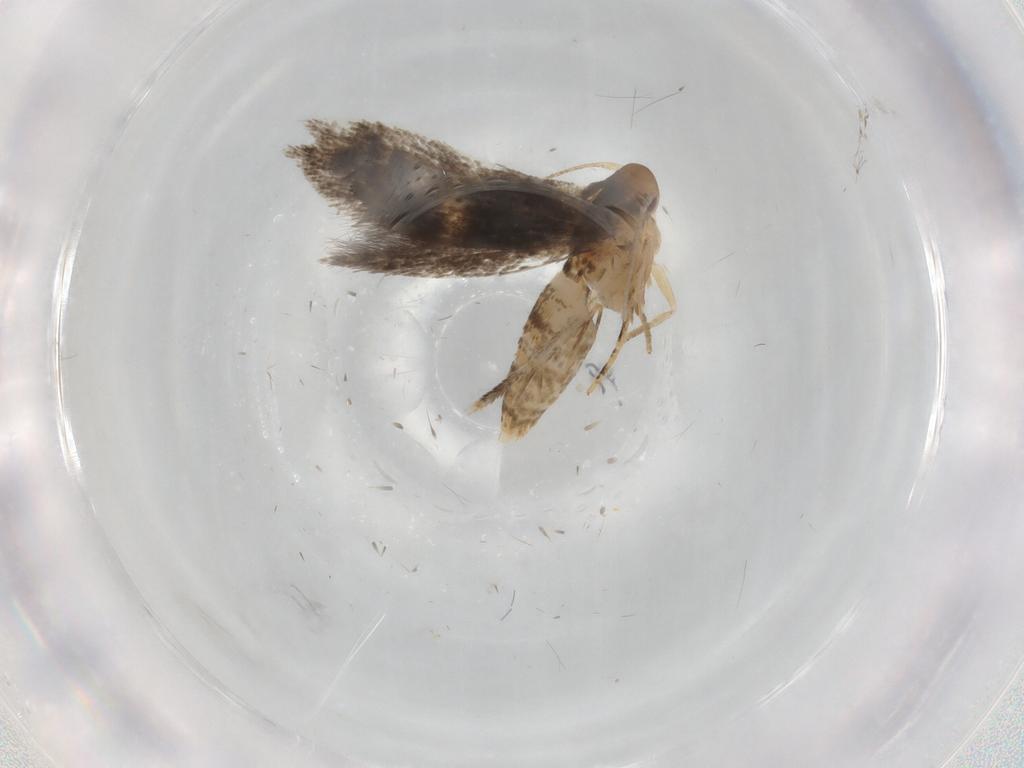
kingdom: Animalia
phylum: Arthropoda
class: Insecta
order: Lepidoptera
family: Momphidae
